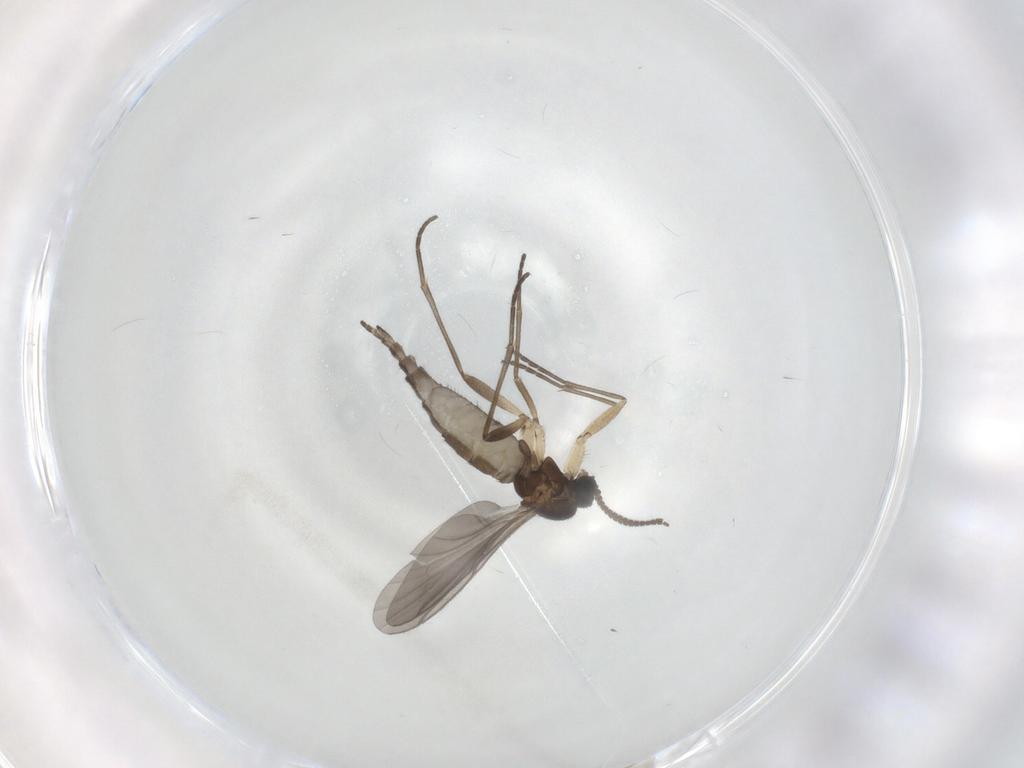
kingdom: Animalia
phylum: Arthropoda
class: Insecta
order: Diptera
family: Sciaridae
